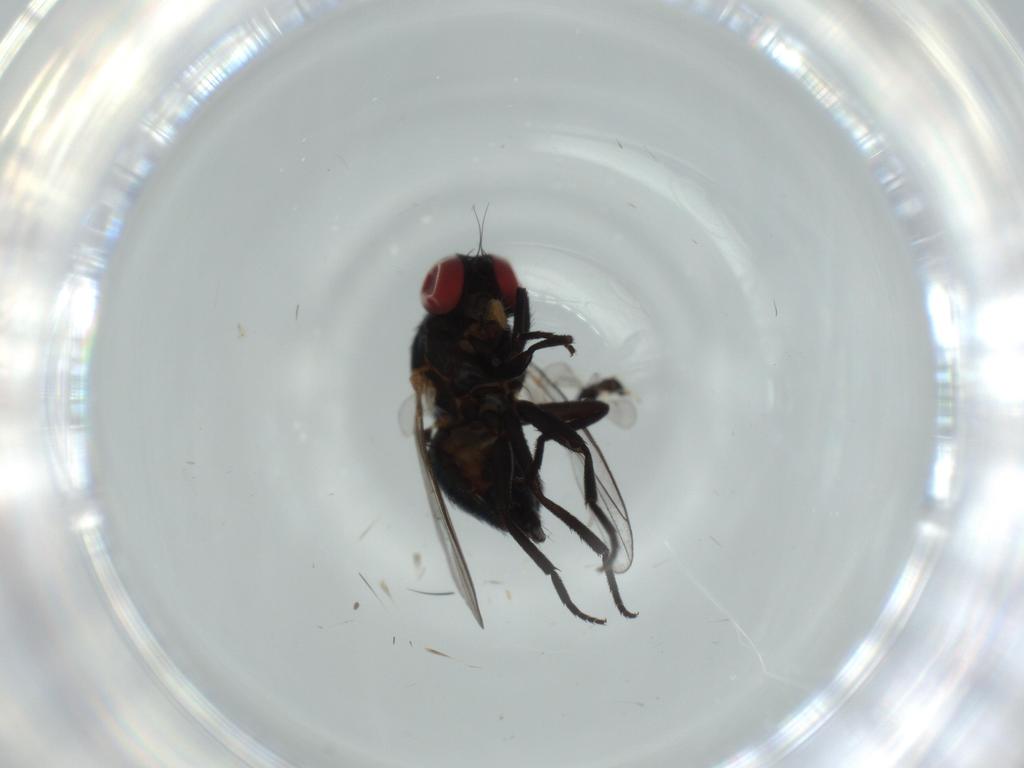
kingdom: Animalia
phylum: Arthropoda
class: Insecta
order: Diptera
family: Agromyzidae
